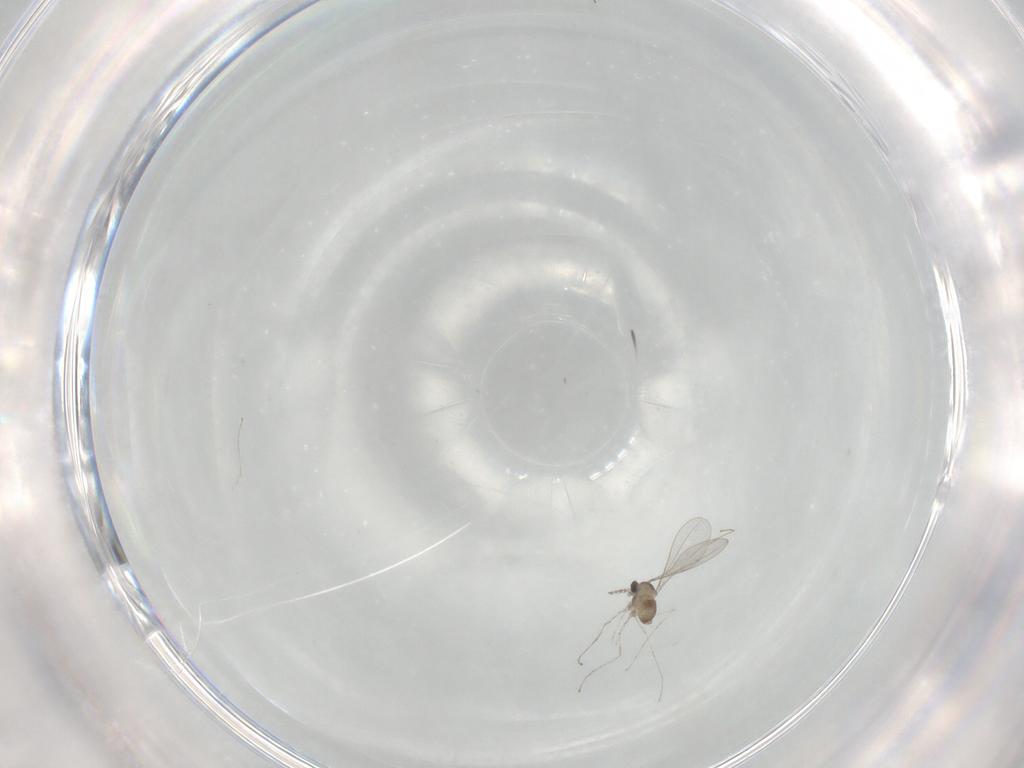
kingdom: Animalia
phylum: Arthropoda
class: Insecta
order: Diptera
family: Cecidomyiidae
